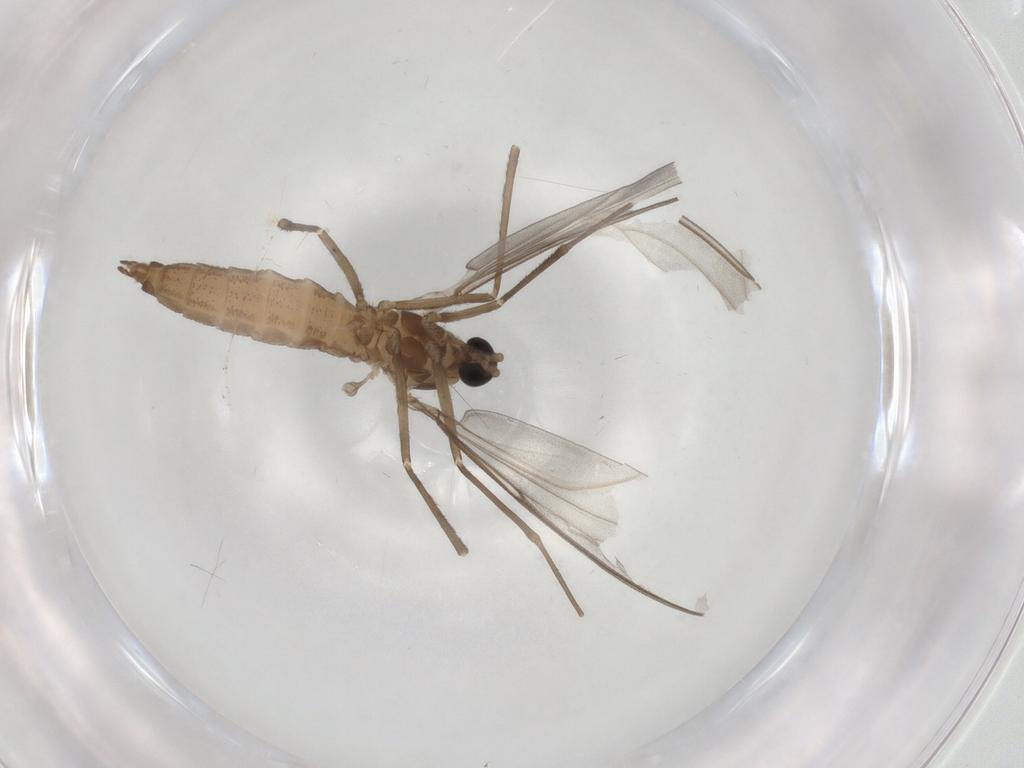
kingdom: Animalia
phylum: Arthropoda
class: Insecta
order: Diptera
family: Cecidomyiidae
